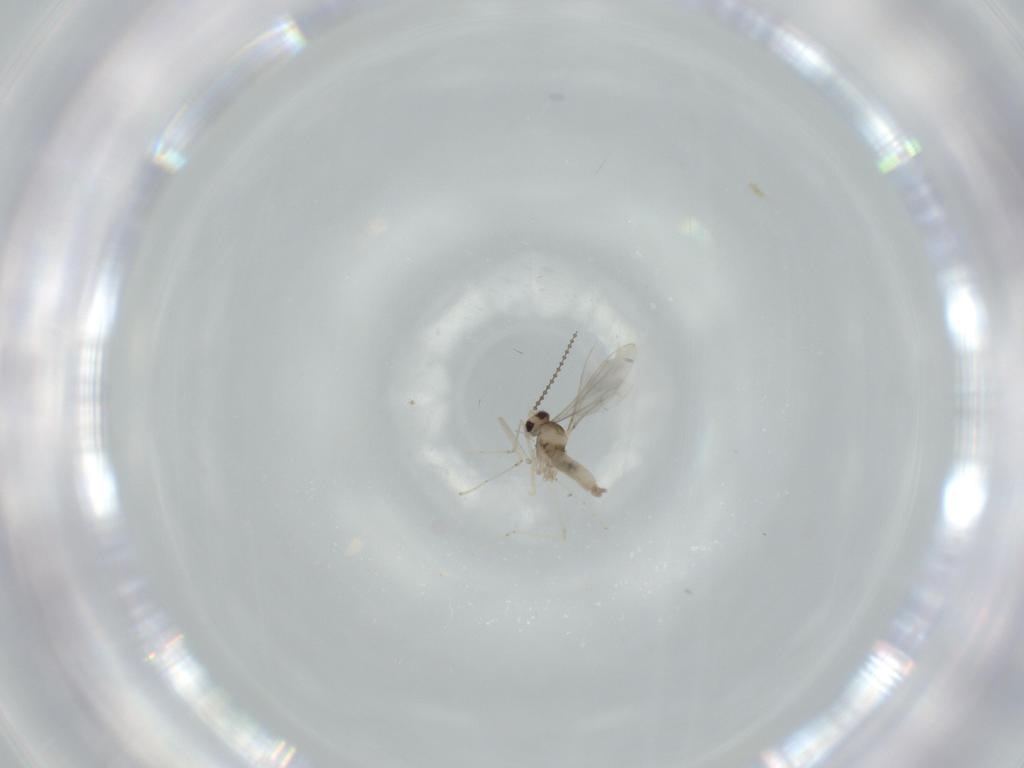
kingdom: Animalia
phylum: Arthropoda
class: Insecta
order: Diptera
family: Cecidomyiidae
